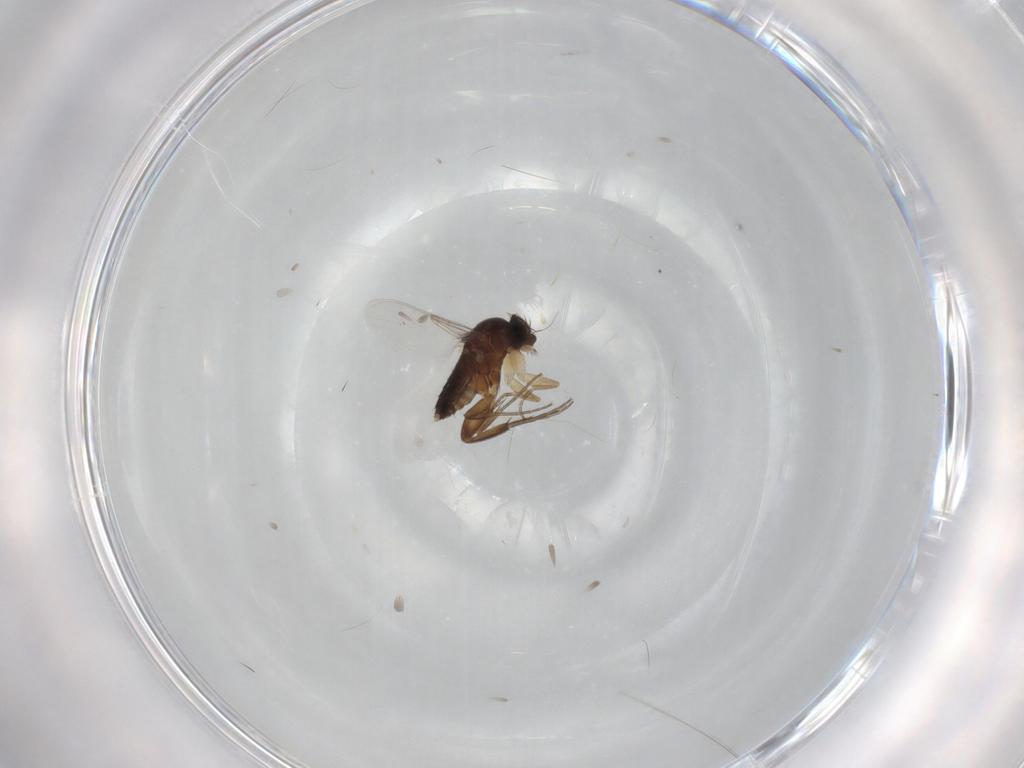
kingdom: Animalia
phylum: Arthropoda
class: Insecta
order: Diptera
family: Phoridae
